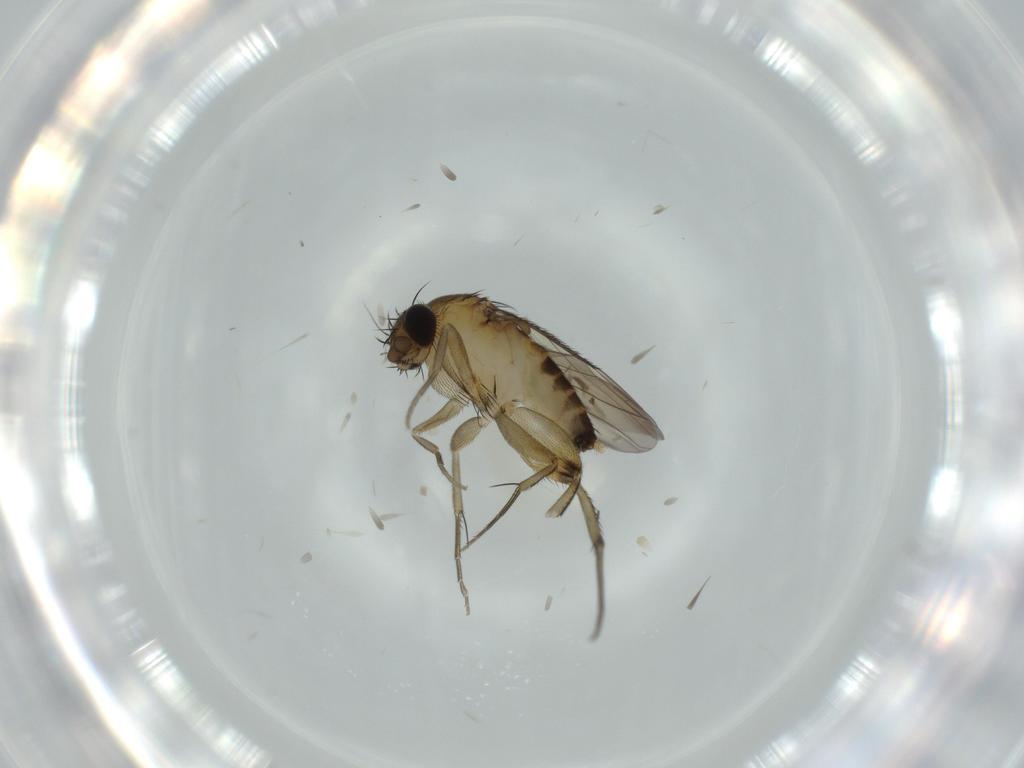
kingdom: Animalia
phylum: Arthropoda
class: Insecta
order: Diptera
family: Phoridae
